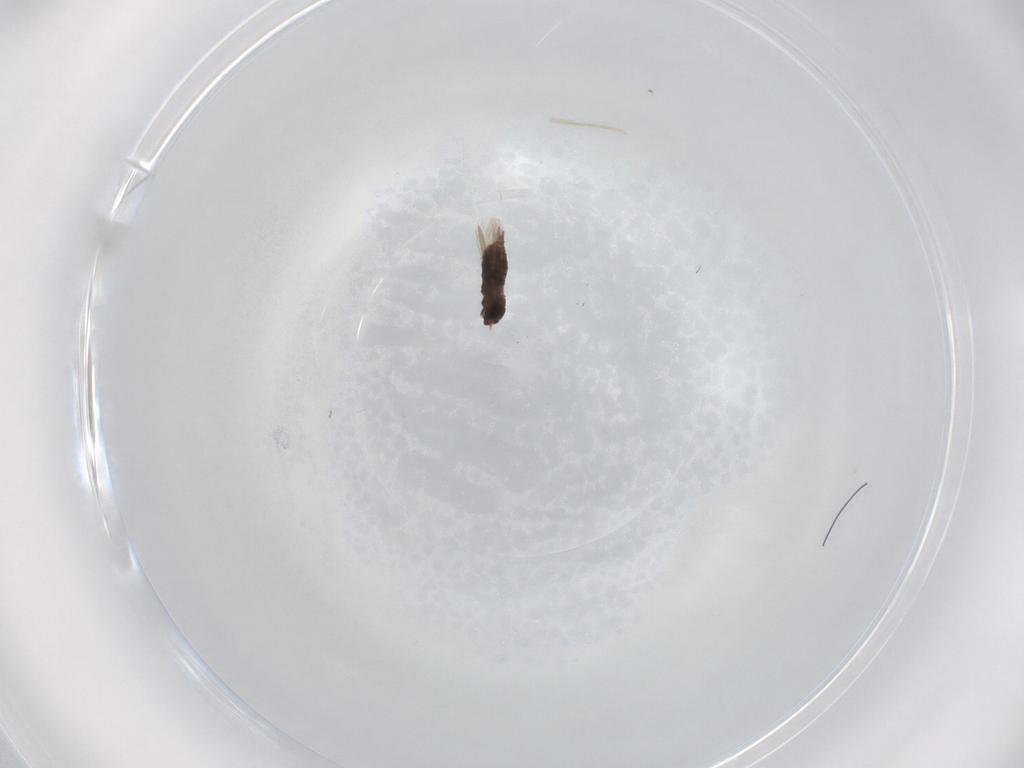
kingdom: Animalia
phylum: Arthropoda
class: Insecta
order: Thysanoptera
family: Thripidae
